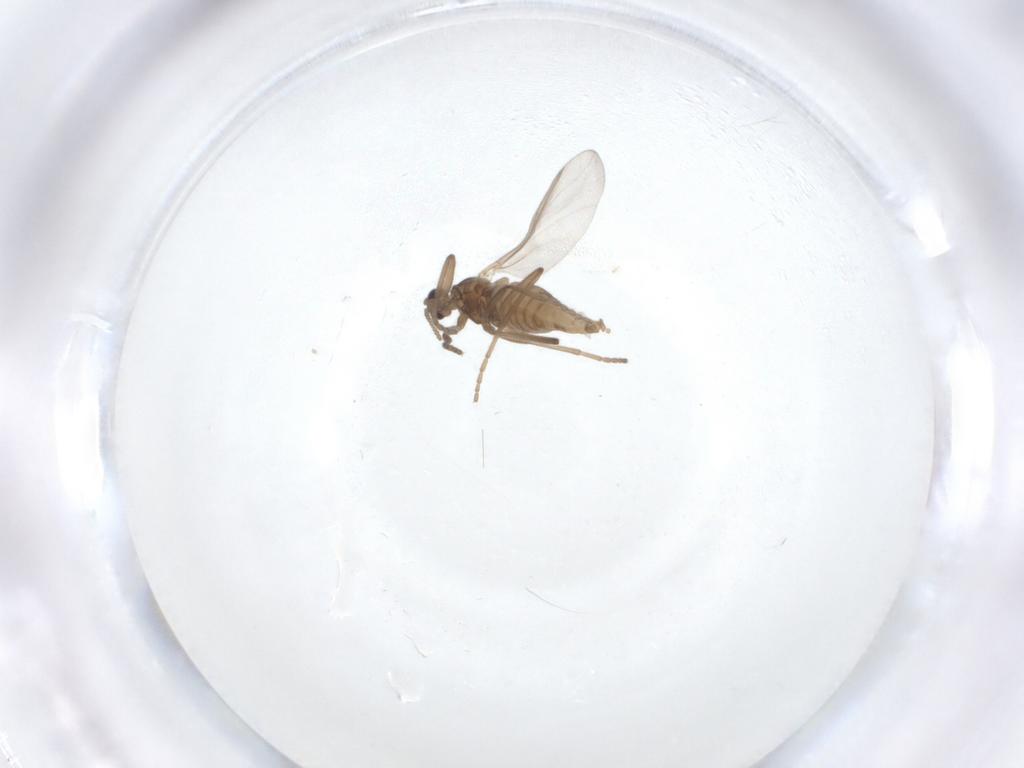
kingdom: Animalia
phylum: Arthropoda
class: Insecta
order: Diptera
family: Cecidomyiidae
